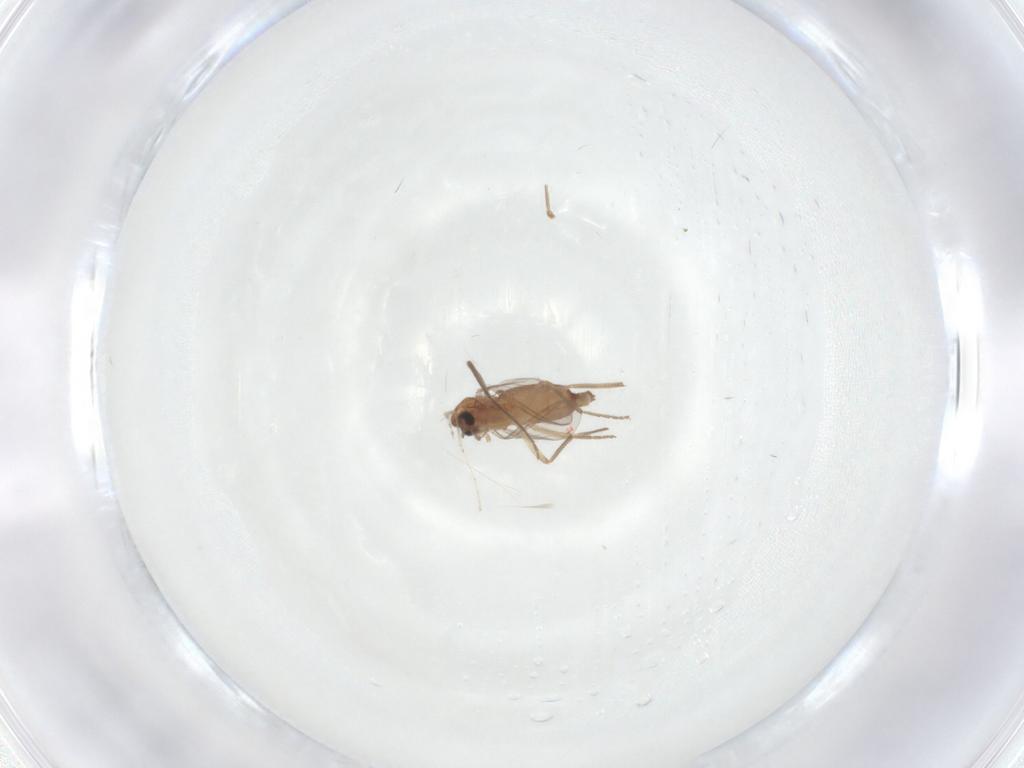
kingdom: Animalia
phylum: Arthropoda
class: Insecta
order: Diptera
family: Chironomidae
